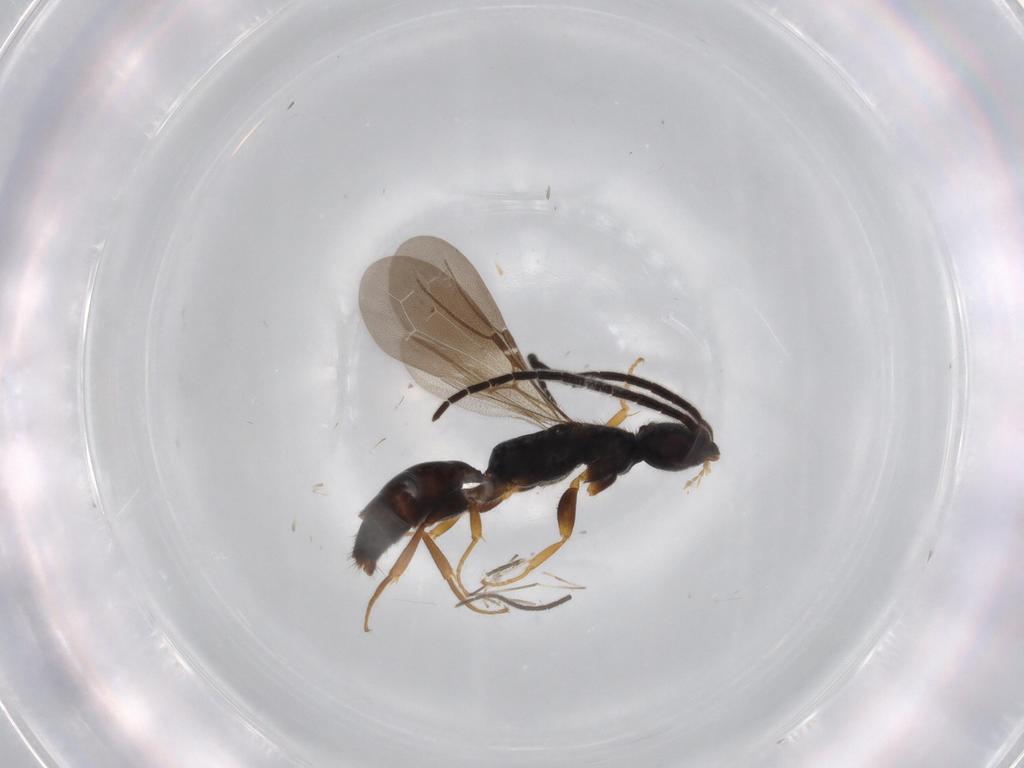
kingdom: Animalia
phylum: Arthropoda
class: Insecta
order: Hymenoptera
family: Bethylidae
